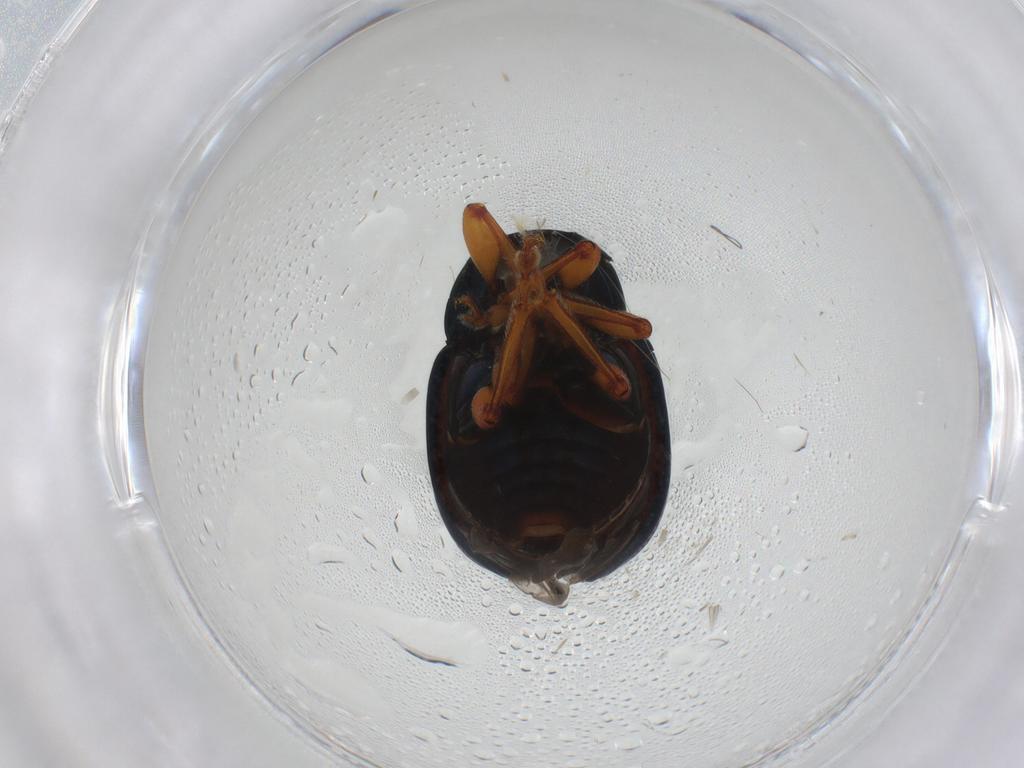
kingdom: Animalia
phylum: Arthropoda
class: Insecta
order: Coleoptera
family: Chrysomelidae
